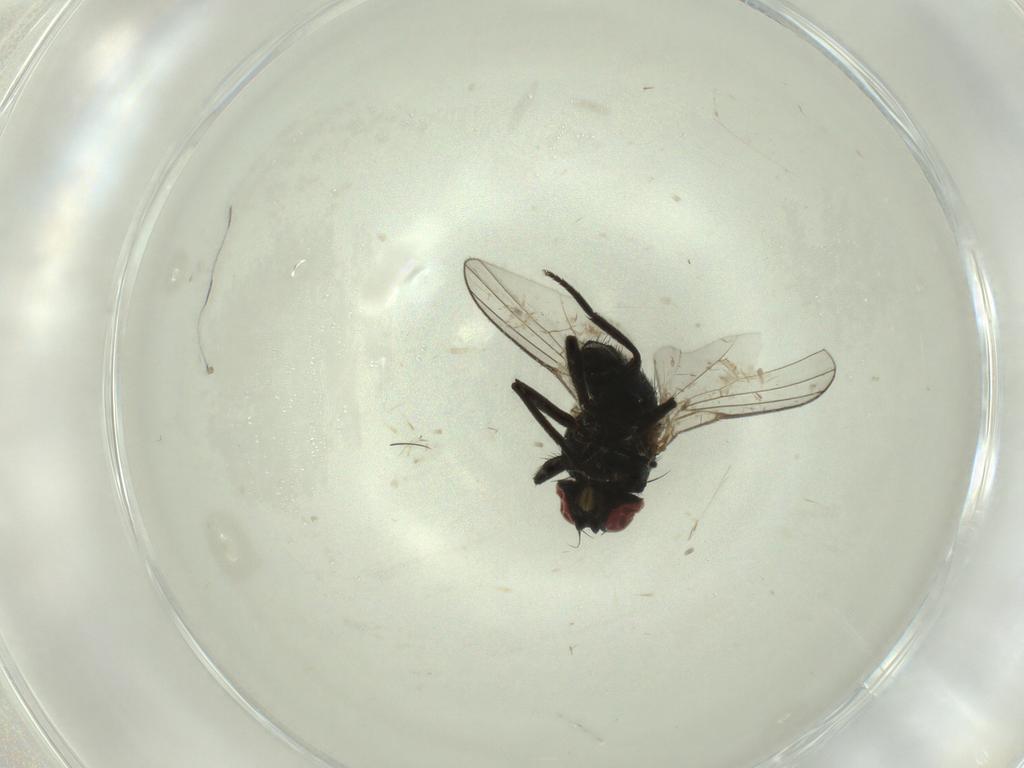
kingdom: Animalia
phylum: Arthropoda
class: Insecta
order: Diptera
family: Agromyzidae
